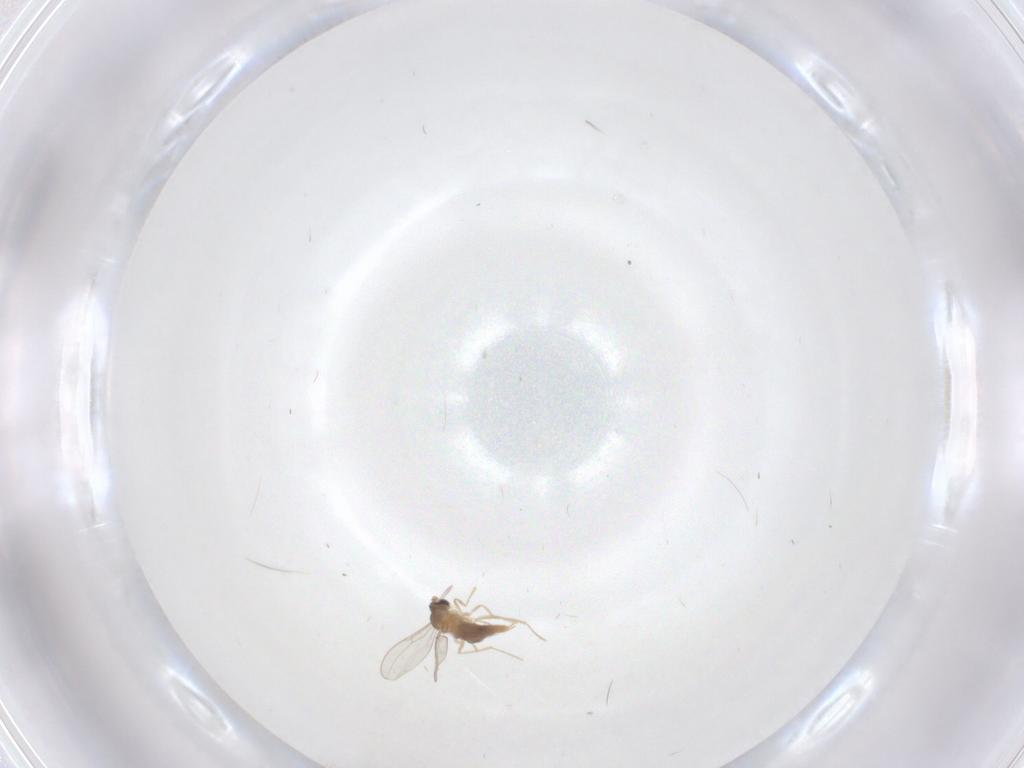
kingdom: Animalia
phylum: Arthropoda
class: Insecta
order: Diptera
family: Cecidomyiidae
